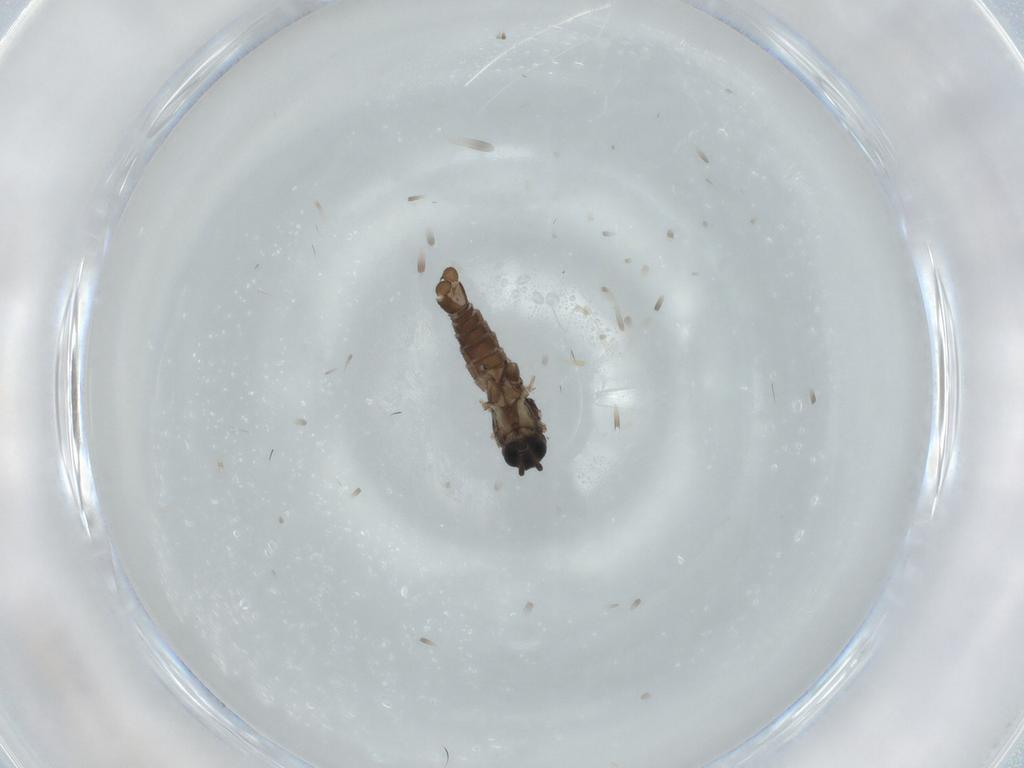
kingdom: Animalia
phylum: Arthropoda
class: Insecta
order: Diptera
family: Sciaridae
